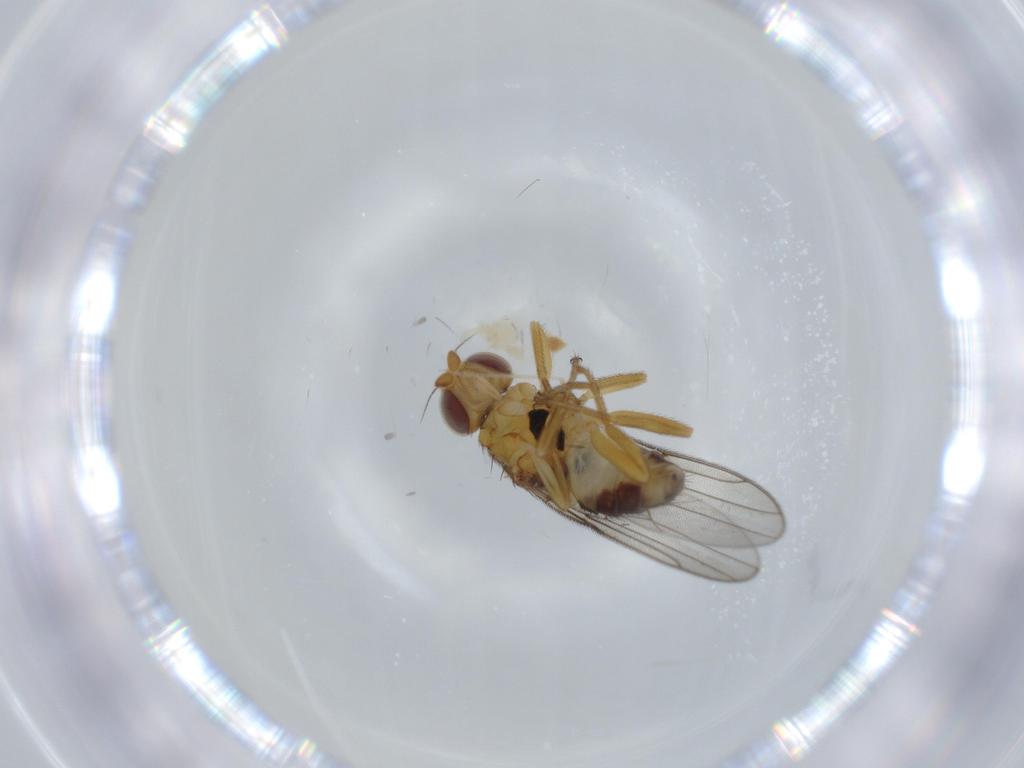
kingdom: Animalia
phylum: Arthropoda
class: Insecta
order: Diptera
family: Chloropidae
